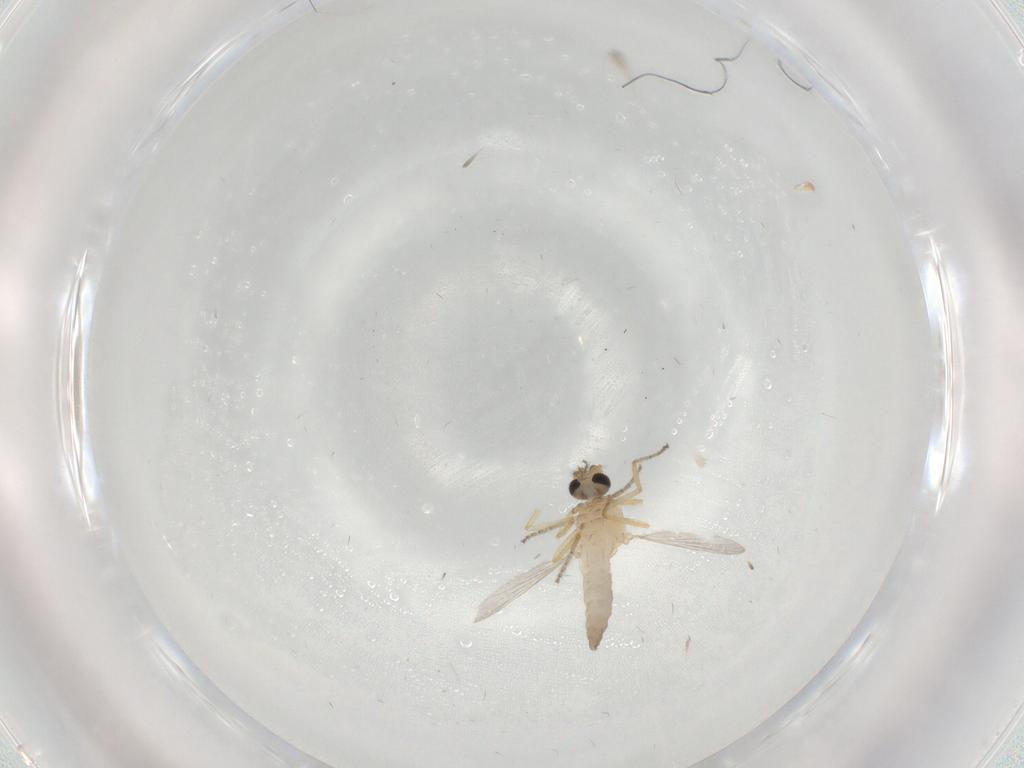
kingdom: Animalia
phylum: Arthropoda
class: Insecta
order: Diptera
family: Ceratopogonidae
